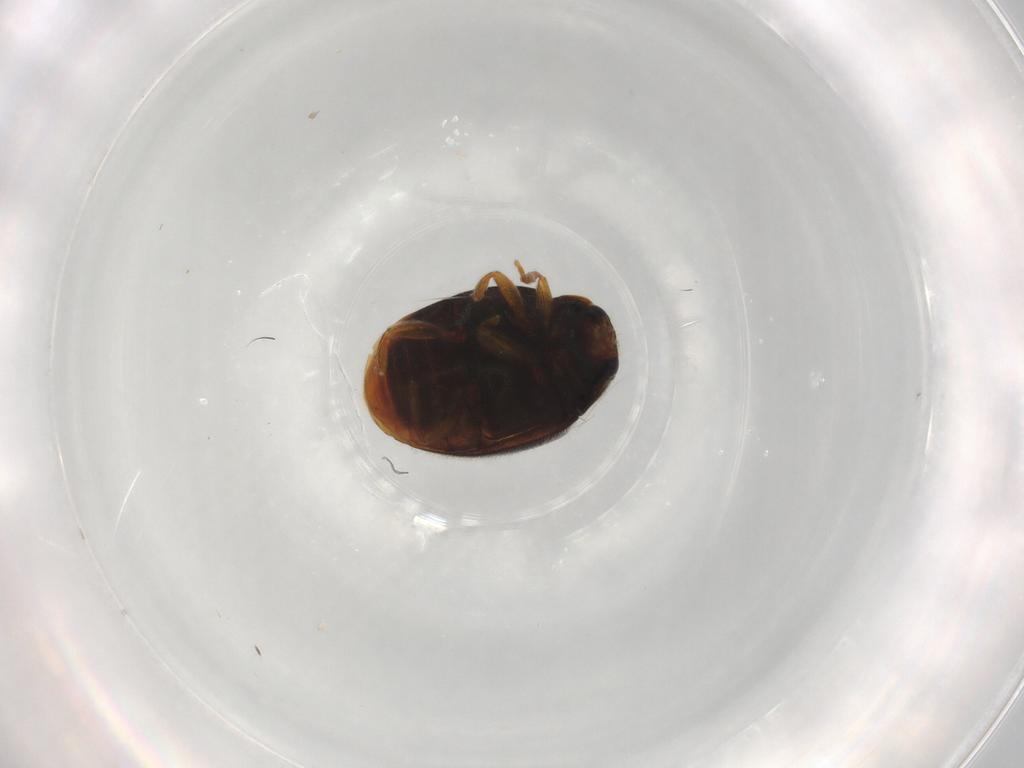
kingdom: Animalia
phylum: Arthropoda
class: Insecta
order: Coleoptera
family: Coccinellidae
